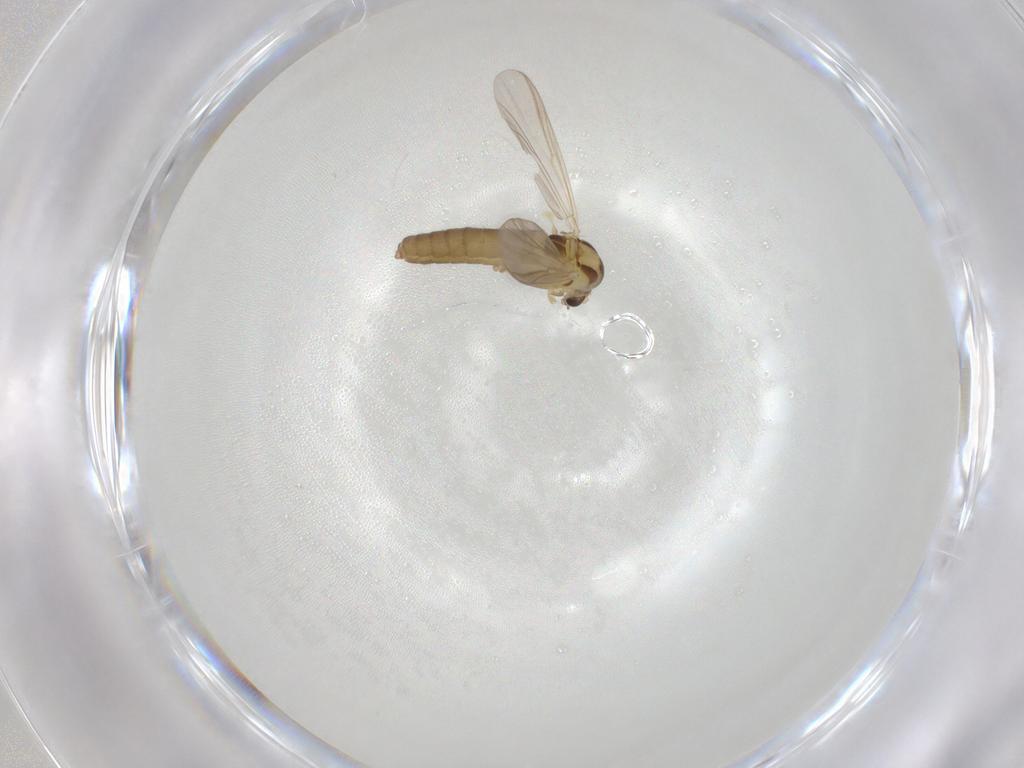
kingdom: Animalia
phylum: Arthropoda
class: Insecta
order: Diptera
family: Chironomidae
